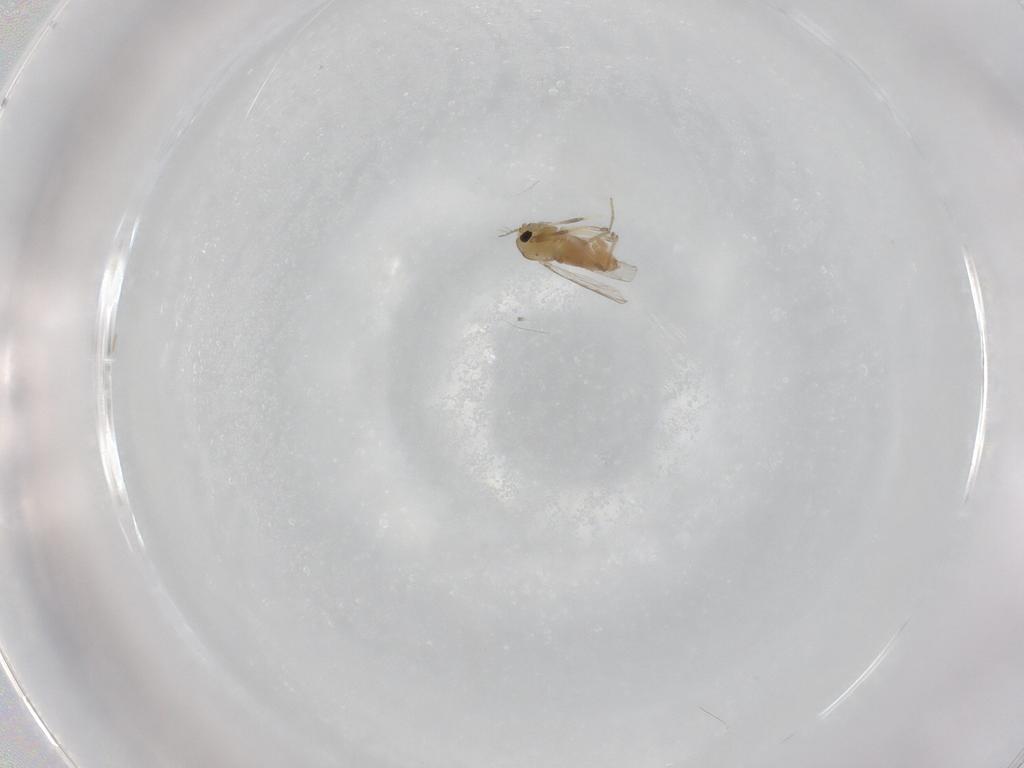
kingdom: Animalia
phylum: Arthropoda
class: Insecta
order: Diptera
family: Chironomidae
